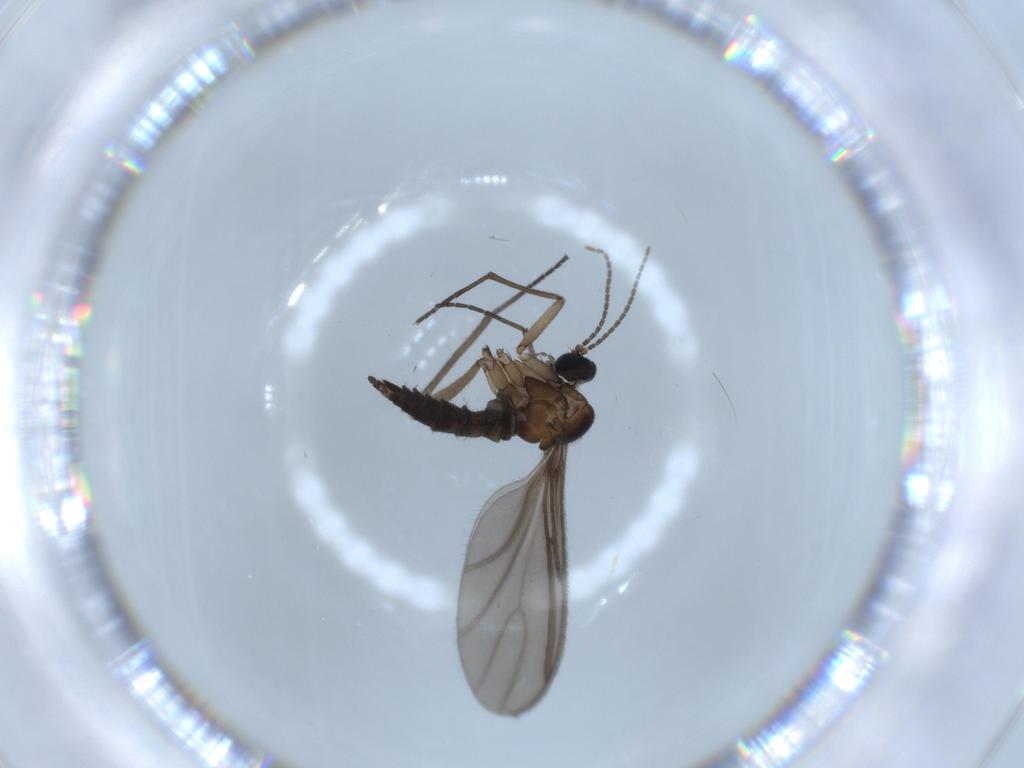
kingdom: Animalia
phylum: Arthropoda
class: Insecta
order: Diptera
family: Sciaridae
